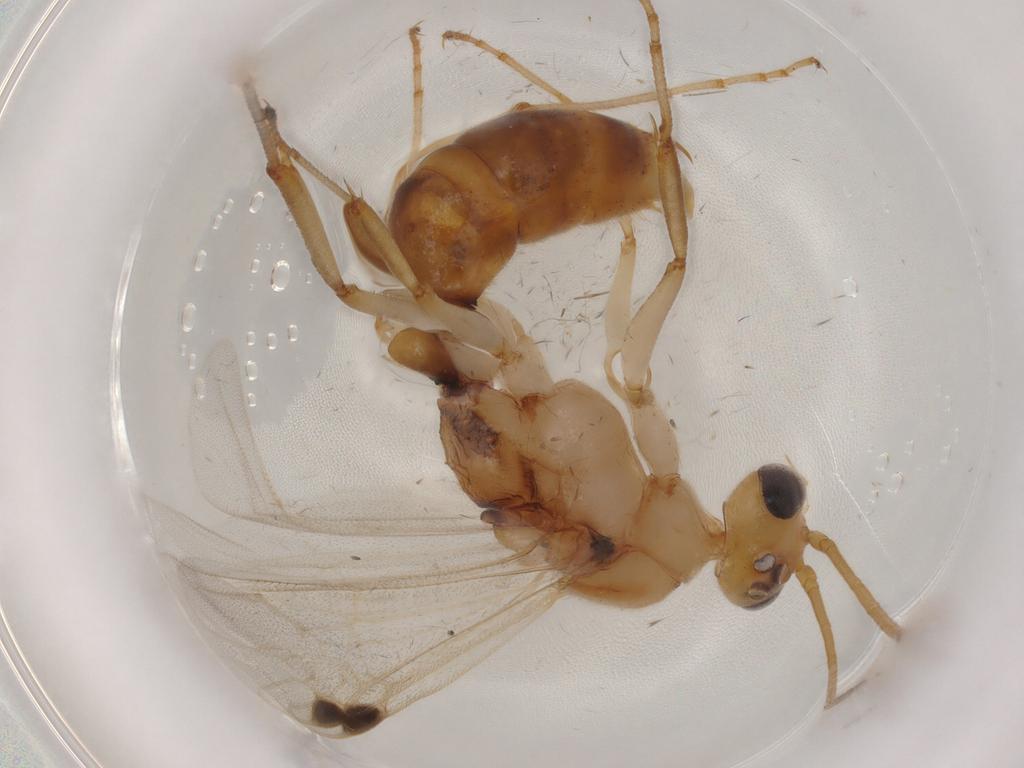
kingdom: Animalia
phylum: Arthropoda
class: Insecta
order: Hymenoptera
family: Formicidae
